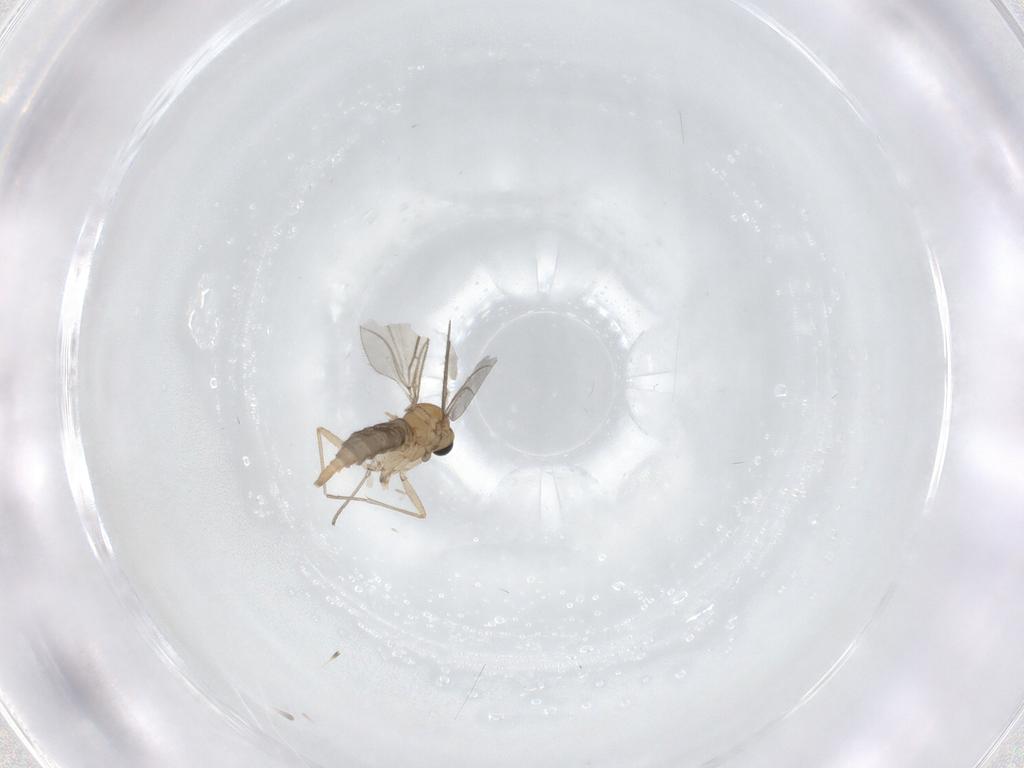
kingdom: Animalia
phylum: Arthropoda
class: Insecta
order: Diptera
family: Sciaridae
